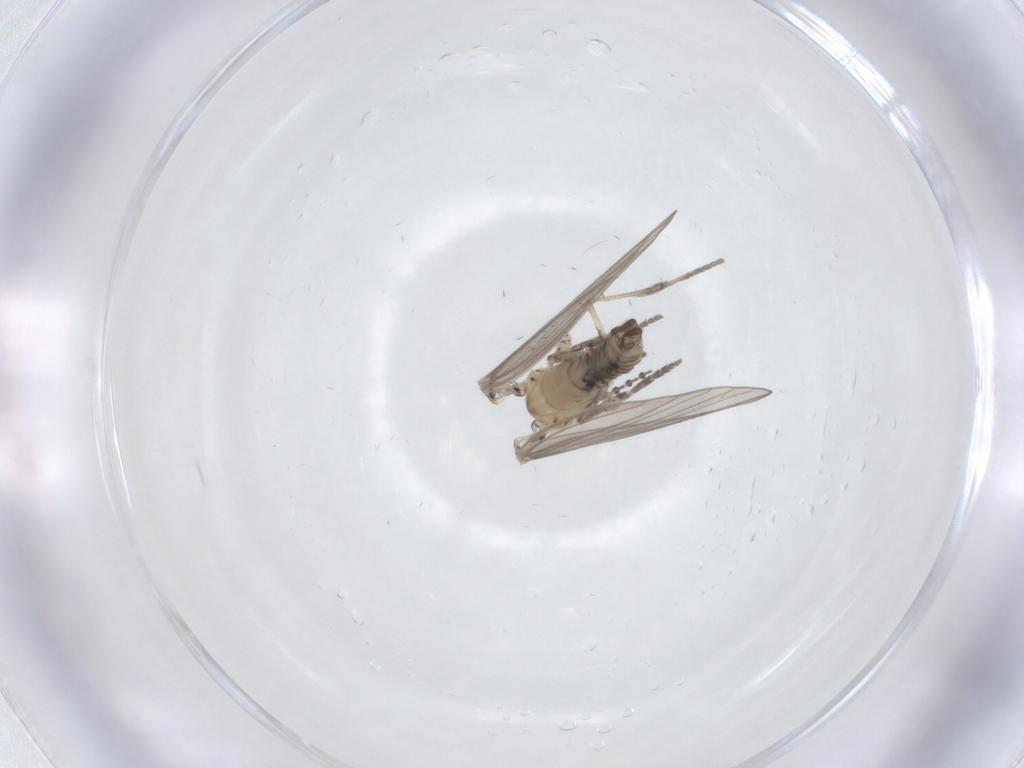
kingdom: Animalia
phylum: Arthropoda
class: Insecta
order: Diptera
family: Psychodidae
